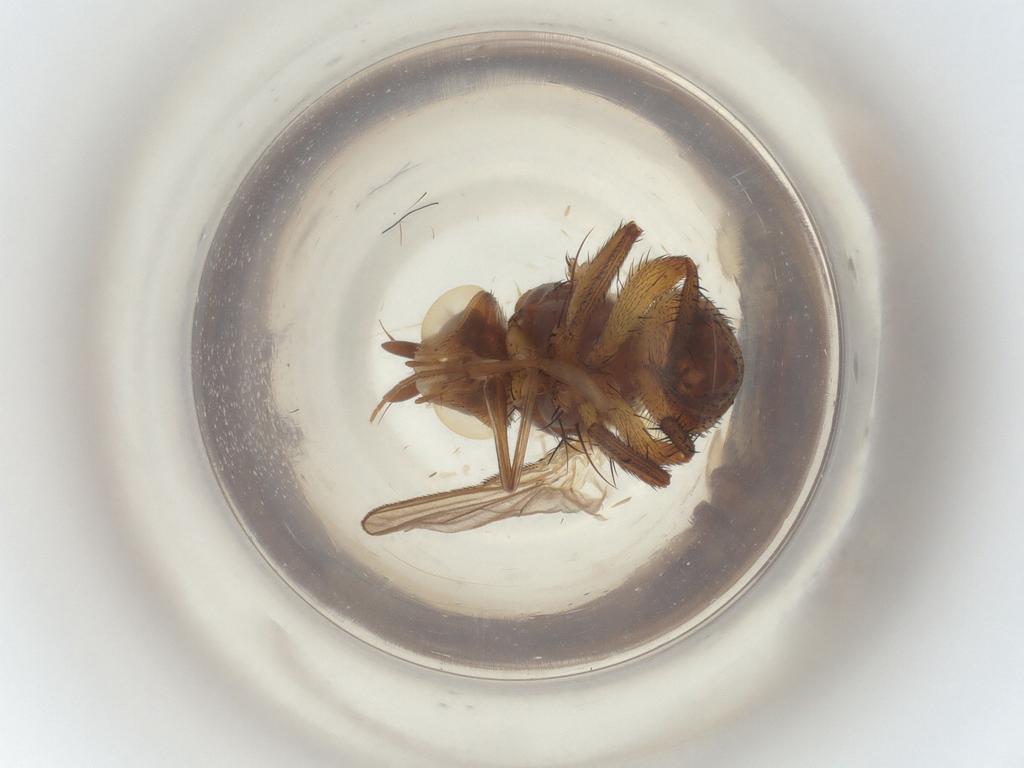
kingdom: Animalia
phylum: Arthropoda
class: Insecta
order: Diptera
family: Tachinidae
